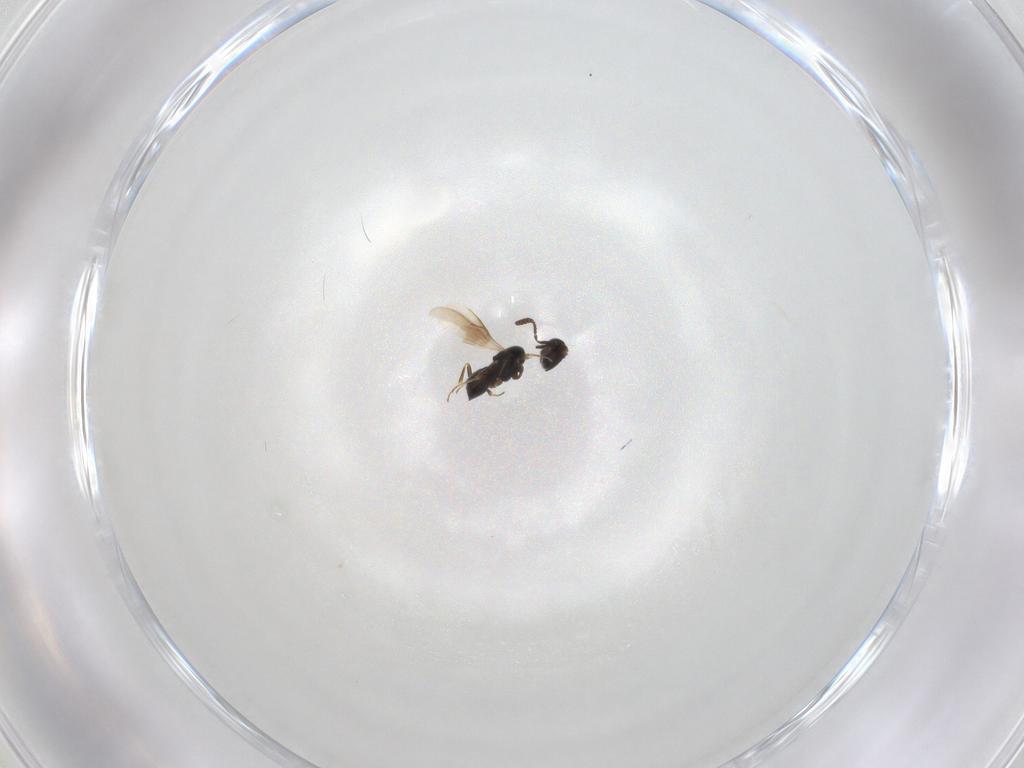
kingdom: Animalia
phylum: Arthropoda
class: Insecta
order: Hymenoptera
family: Scelionidae
